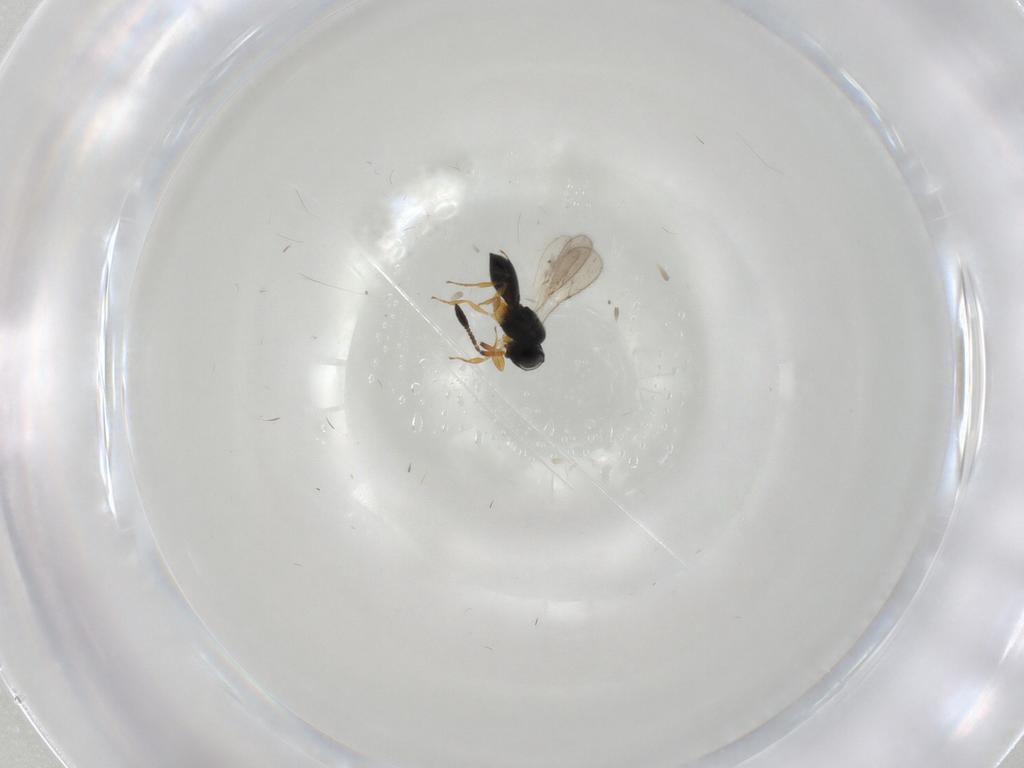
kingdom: Animalia
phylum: Arthropoda
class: Insecta
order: Hymenoptera
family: Scelionidae
